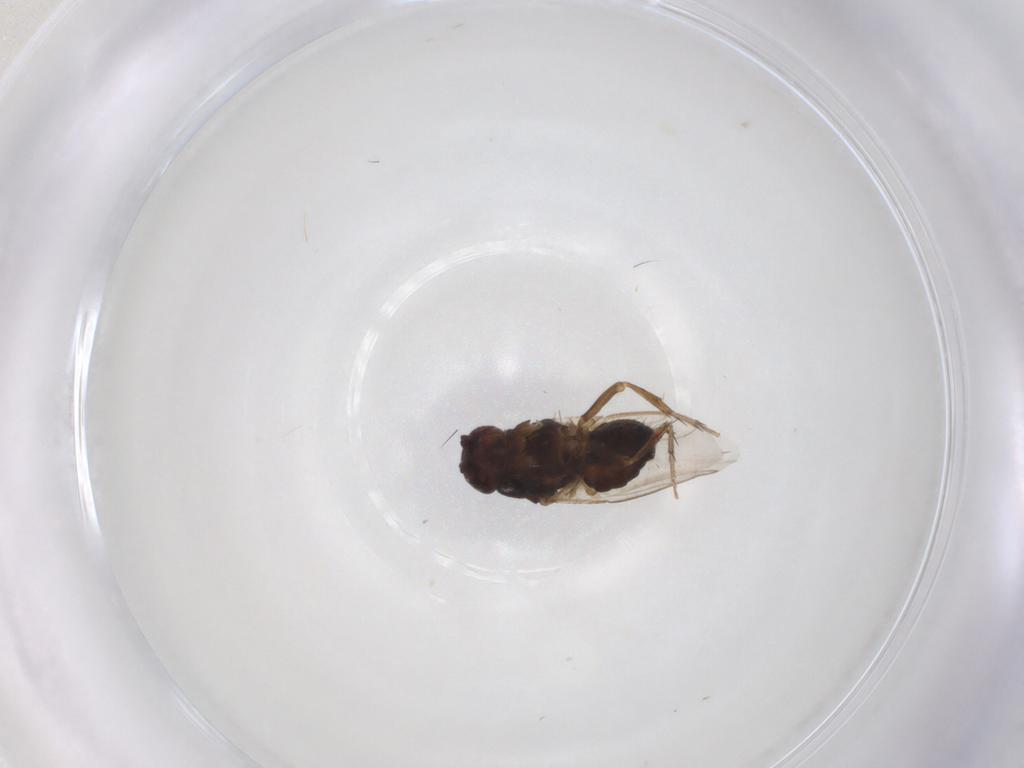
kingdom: Animalia
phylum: Arthropoda
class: Insecta
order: Diptera
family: Sphaeroceridae
